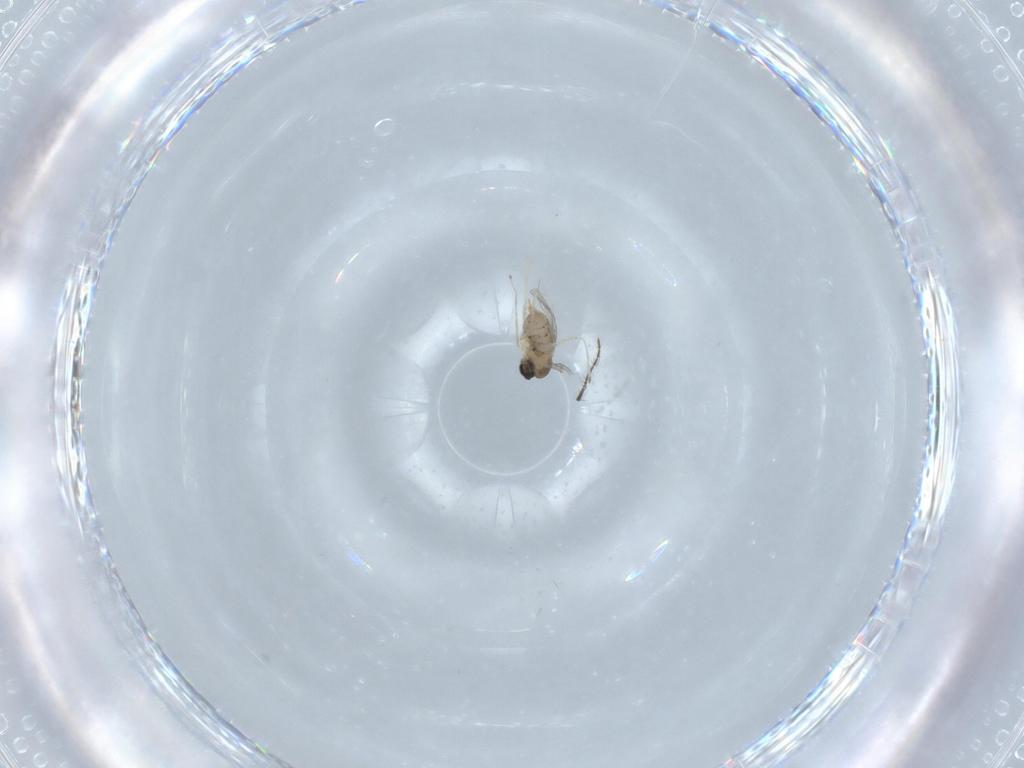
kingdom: Animalia
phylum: Arthropoda
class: Insecta
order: Diptera
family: Cecidomyiidae
